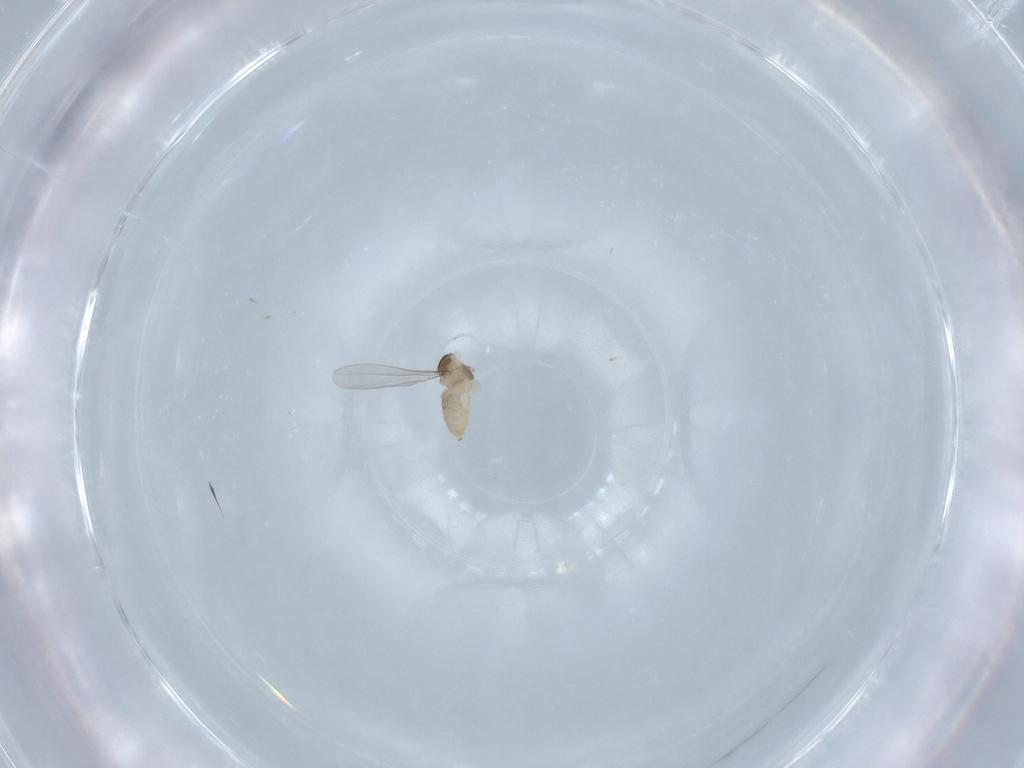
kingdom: Animalia
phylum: Arthropoda
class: Insecta
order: Diptera
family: Cecidomyiidae
